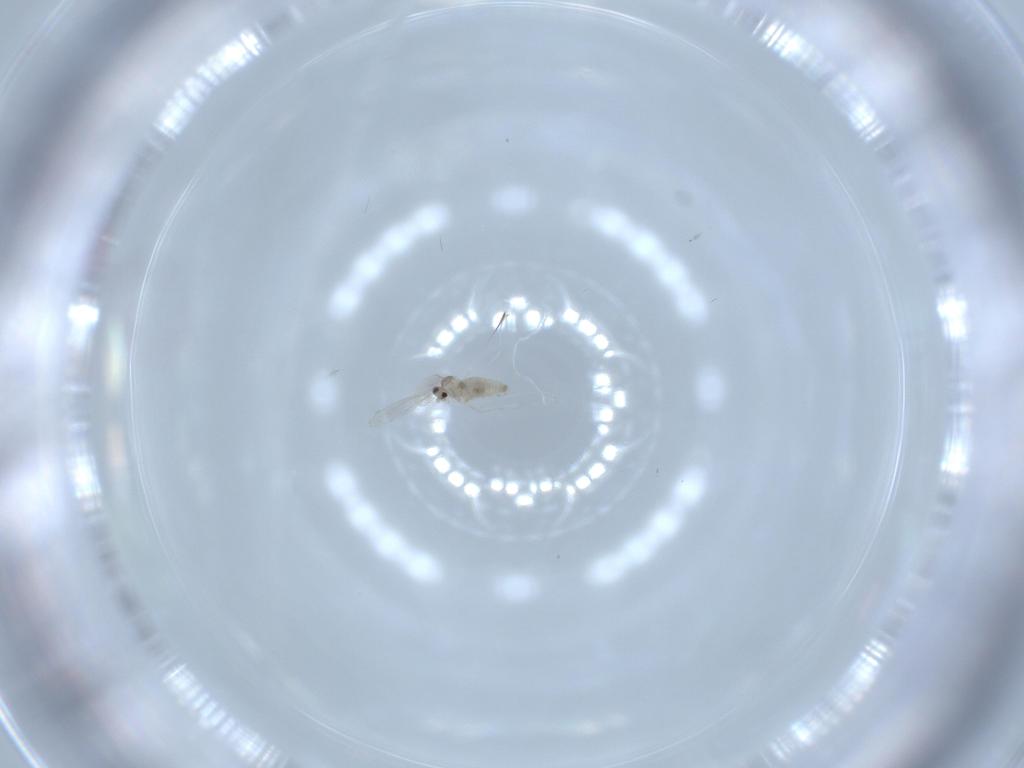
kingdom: Animalia
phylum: Arthropoda
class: Insecta
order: Diptera
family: Cecidomyiidae
